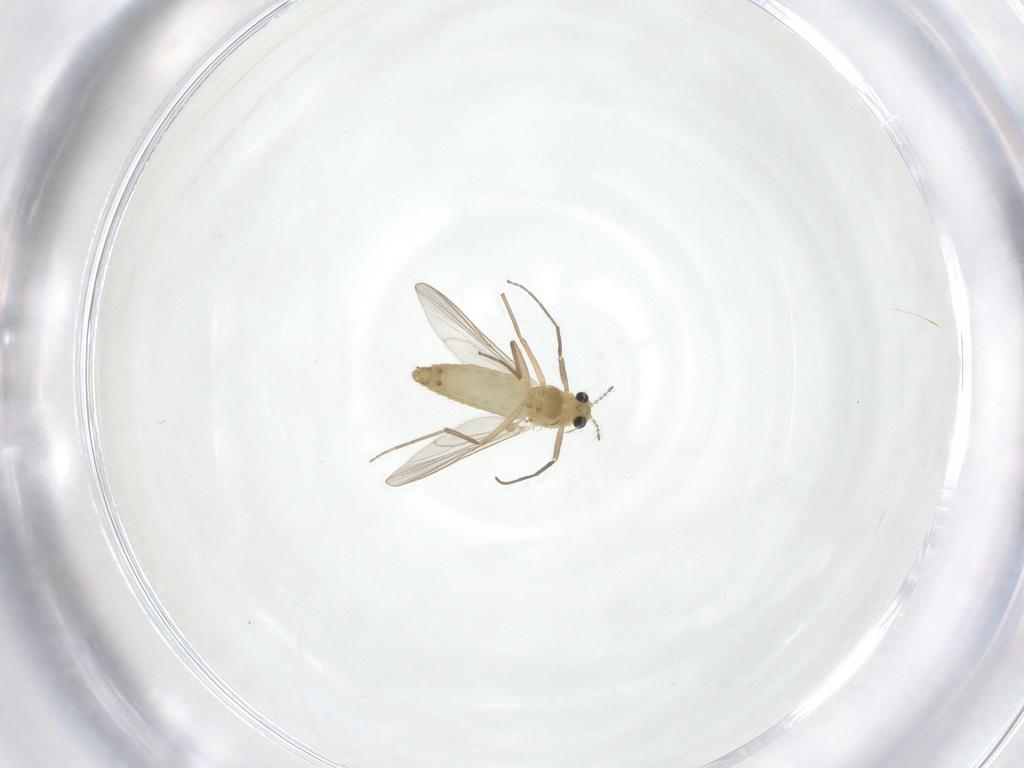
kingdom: Animalia
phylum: Arthropoda
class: Insecta
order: Diptera
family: Chironomidae
